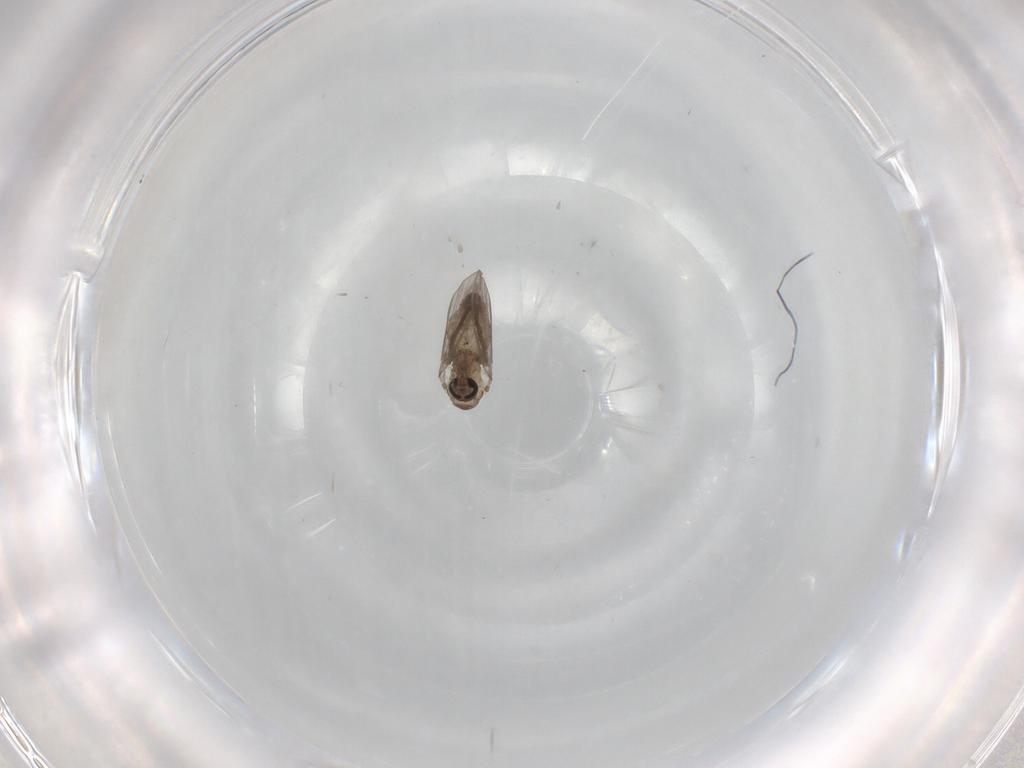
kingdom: Animalia
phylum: Arthropoda
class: Insecta
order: Diptera
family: Psychodidae
